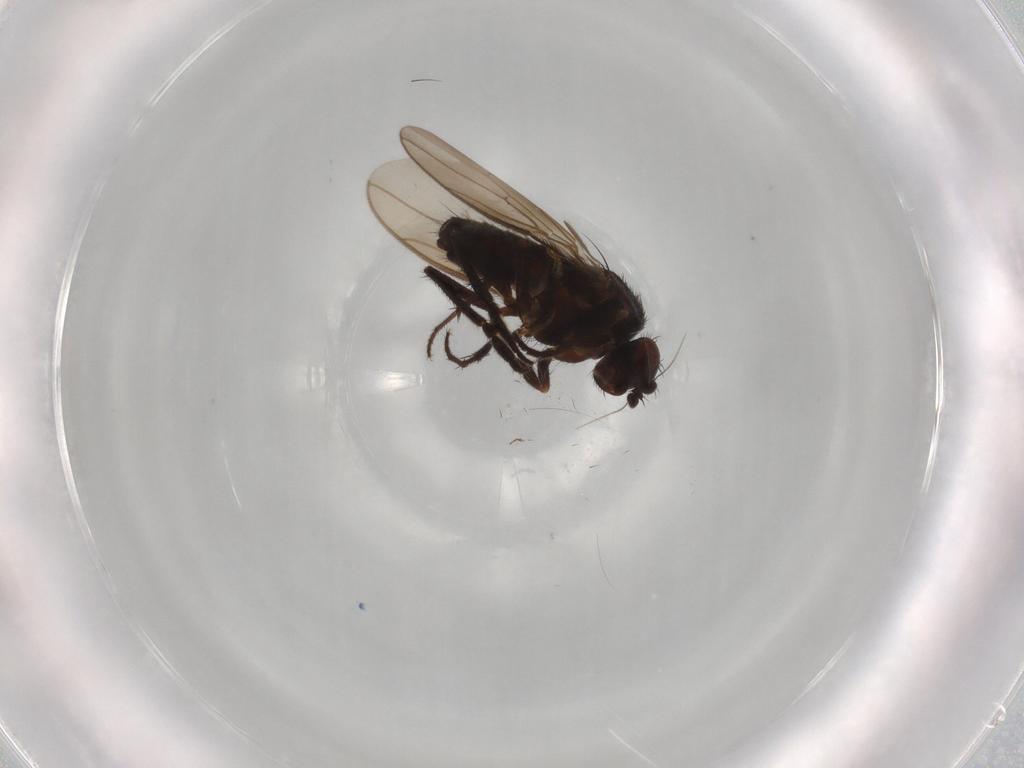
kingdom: Animalia
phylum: Arthropoda
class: Insecta
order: Diptera
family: Sphaeroceridae
